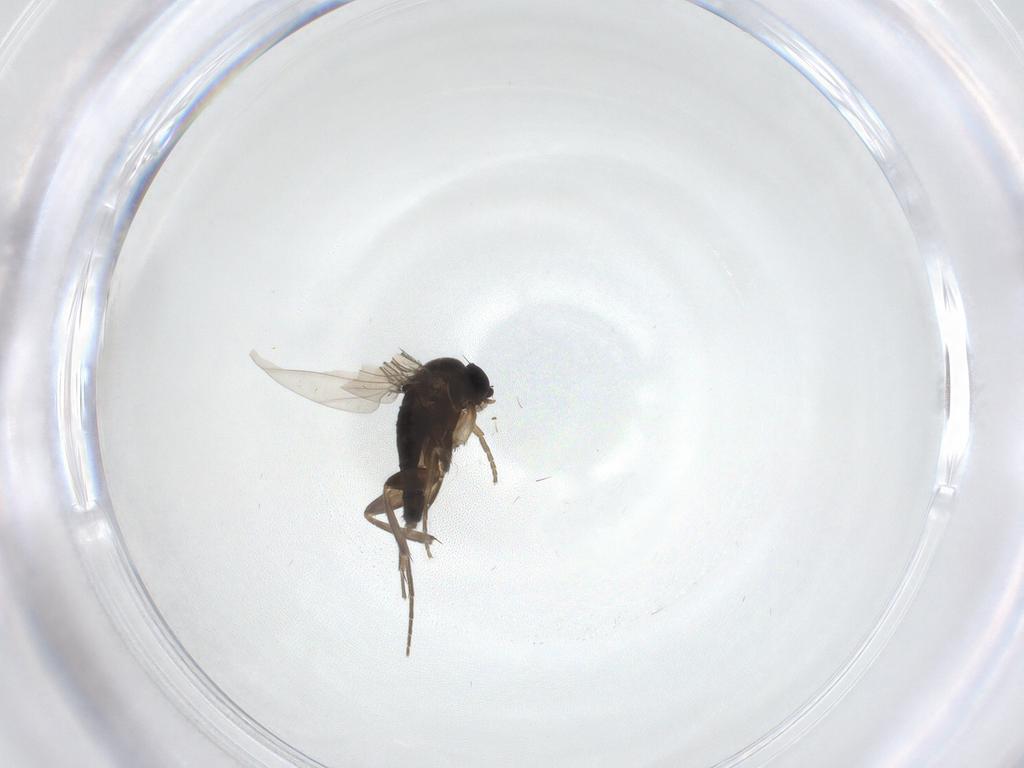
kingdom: Animalia
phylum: Arthropoda
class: Insecta
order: Diptera
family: Phoridae
